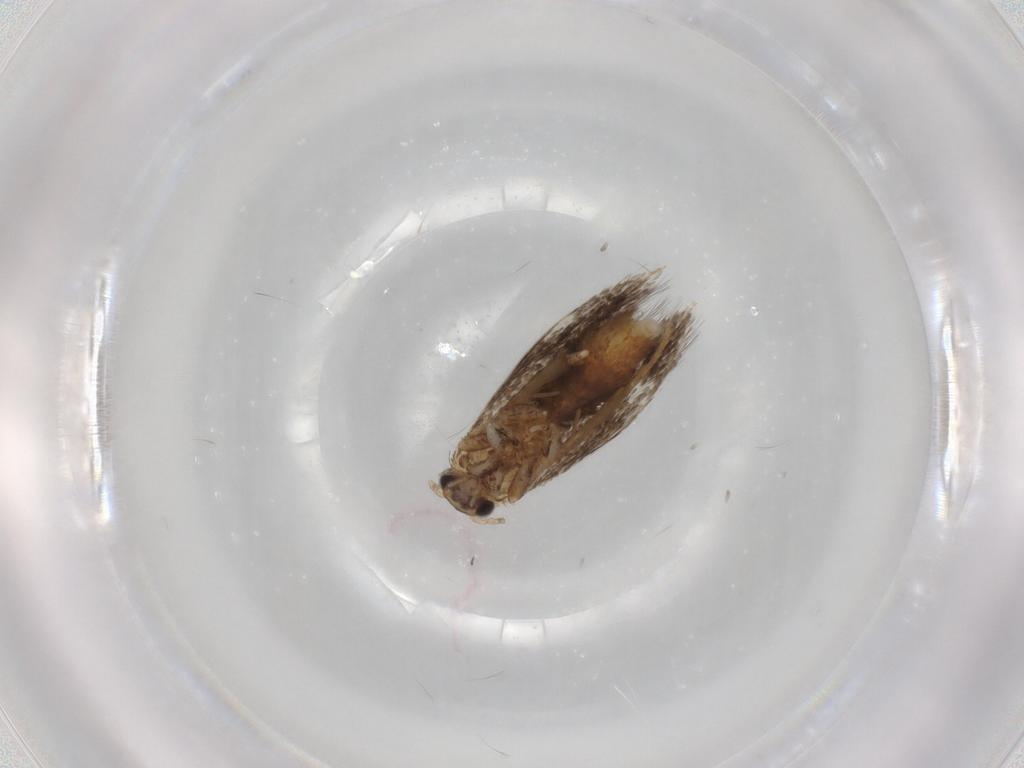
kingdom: Animalia
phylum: Arthropoda
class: Insecta
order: Lepidoptera
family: Tineidae
